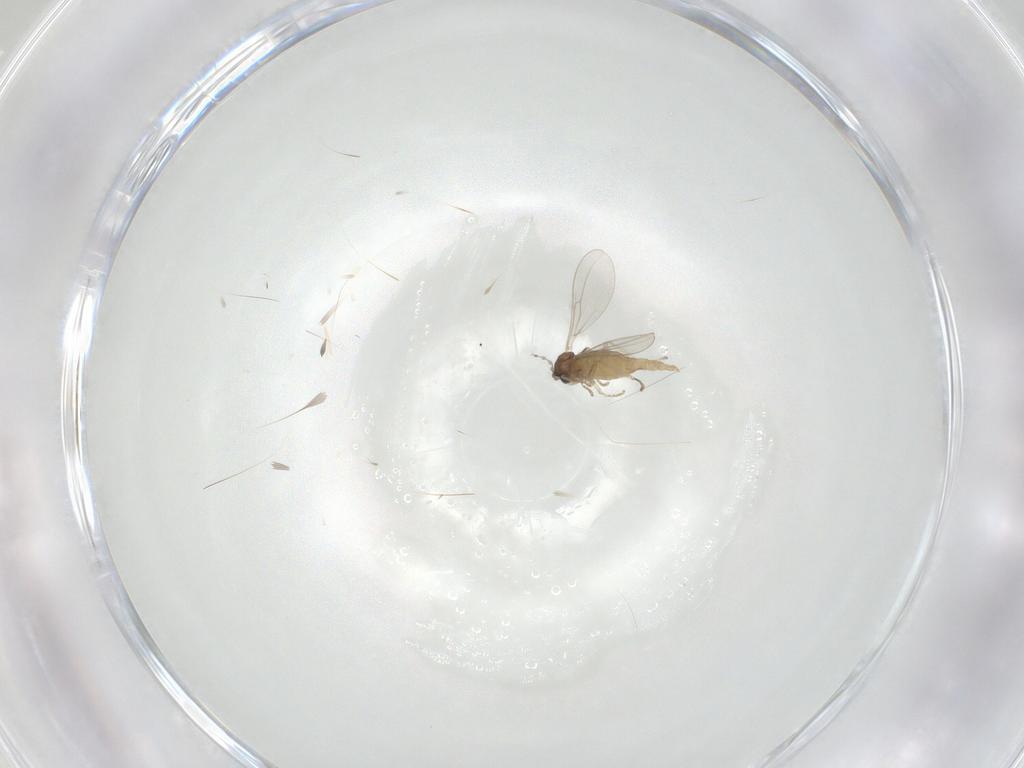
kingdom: Animalia
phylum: Arthropoda
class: Insecta
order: Diptera
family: Cecidomyiidae
